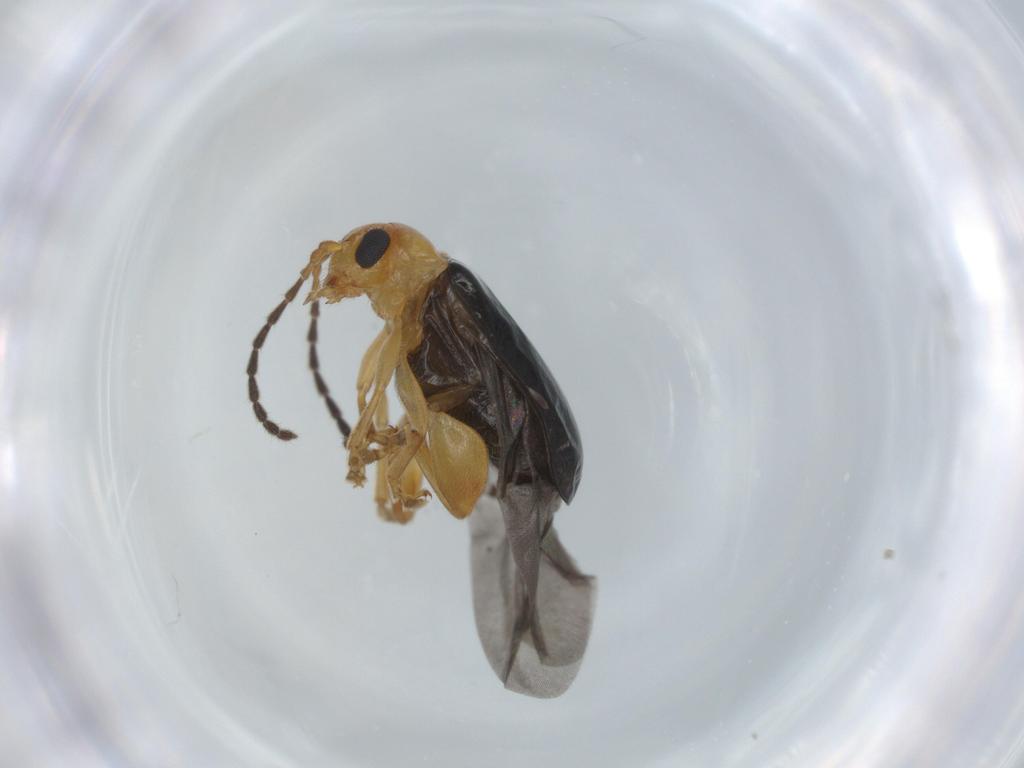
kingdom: Animalia
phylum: Arthropoda
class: Insecta
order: Coleoptera
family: Chrysomelidae
